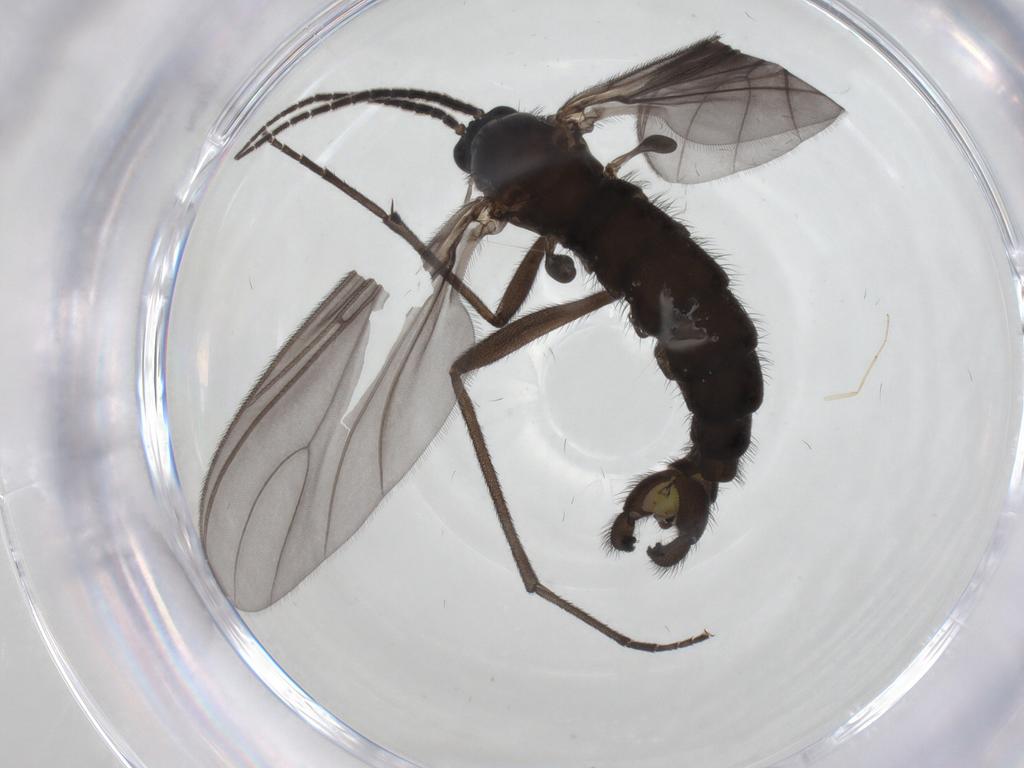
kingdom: Animalia
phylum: Arthropoda
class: Insecta
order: Diptera
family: Chironomidae
